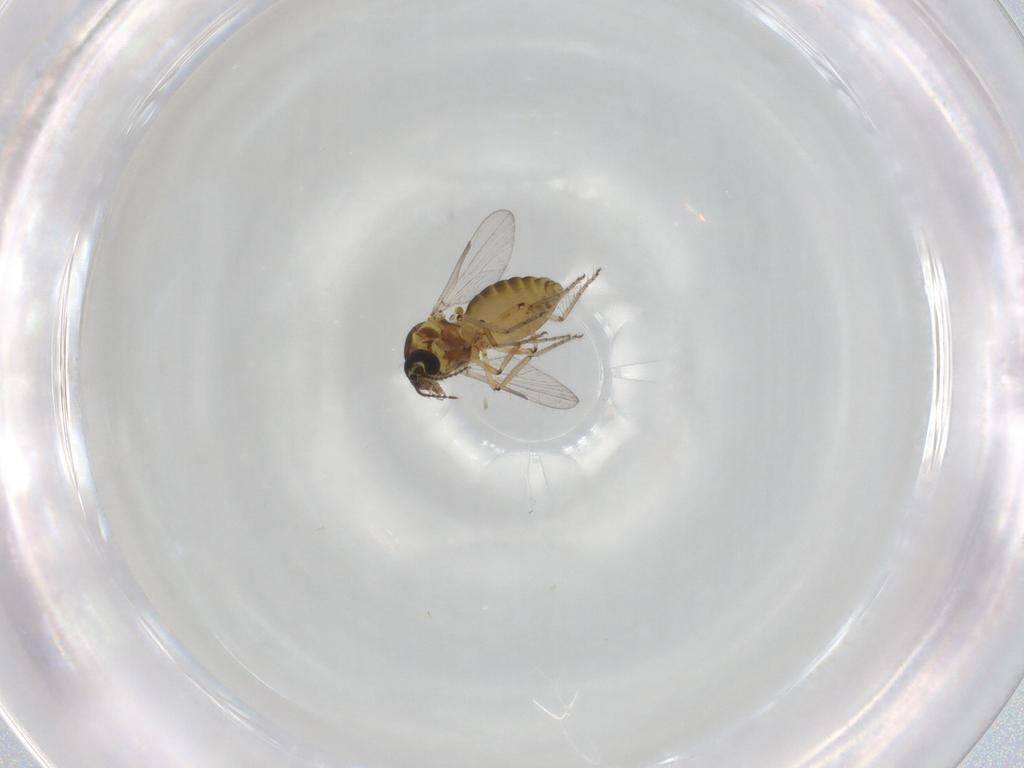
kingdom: Animalia
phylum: Arthropoda
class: Insecta
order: Diptera
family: Ceratopogonidae
